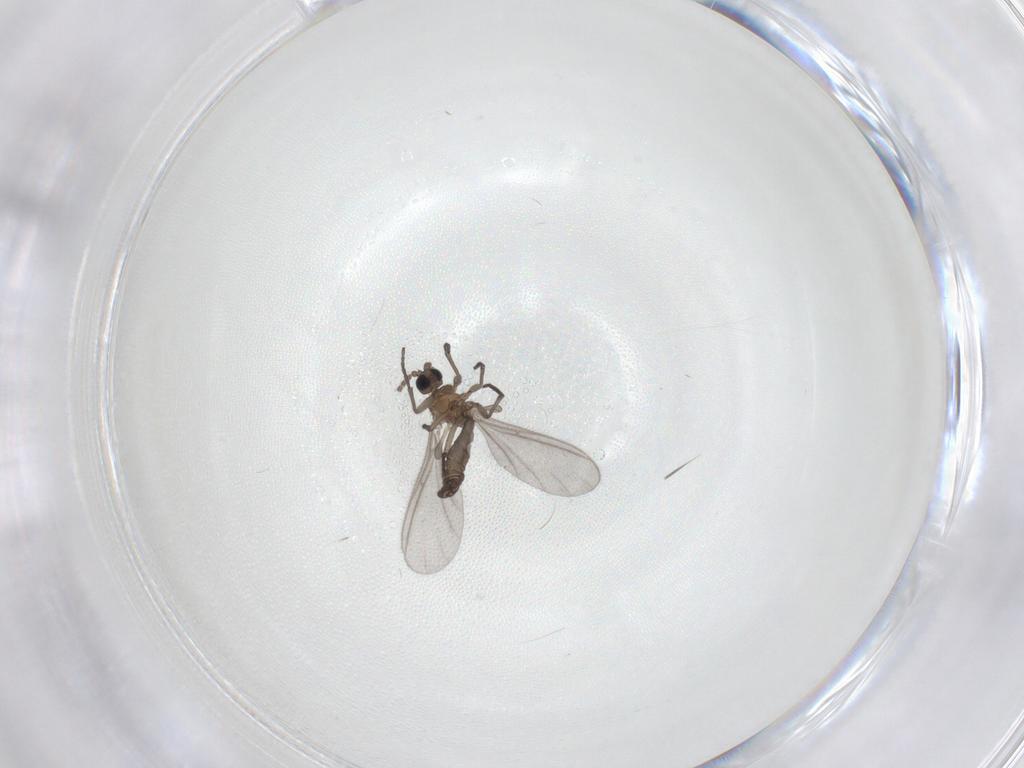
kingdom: Animalia
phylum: Arthropoda
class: Insecta
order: Diptera
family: Sciaridae
